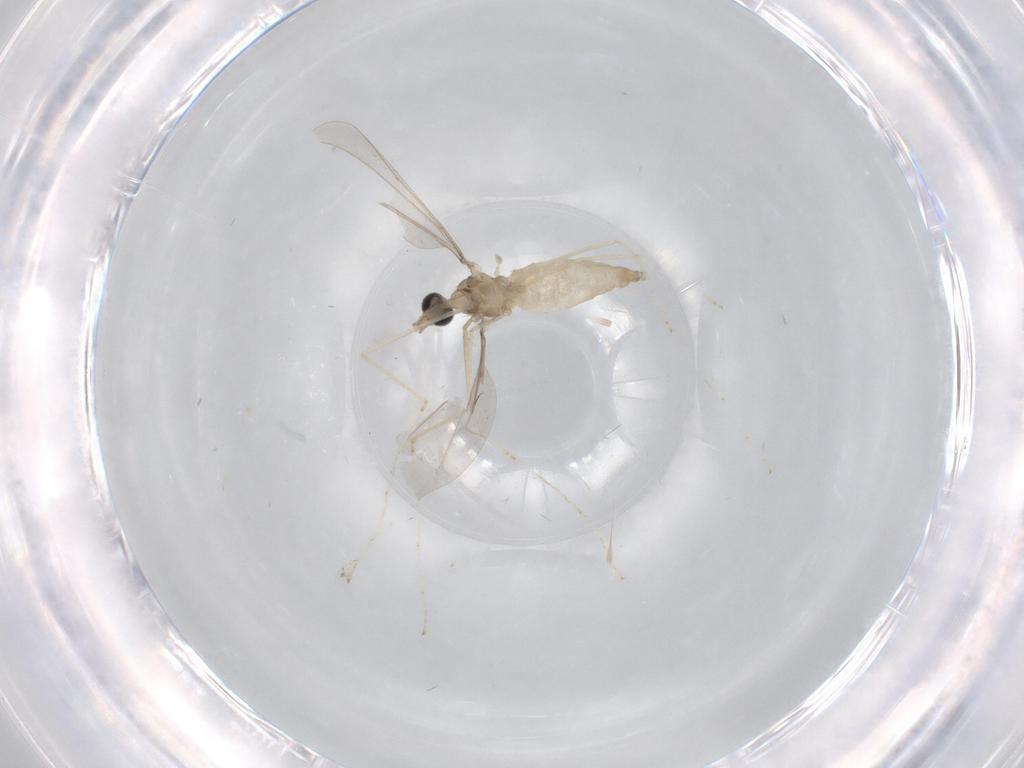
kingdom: Animalia
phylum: Arthropoda
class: Insecta
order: Diptera
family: Cecidomyiidae
